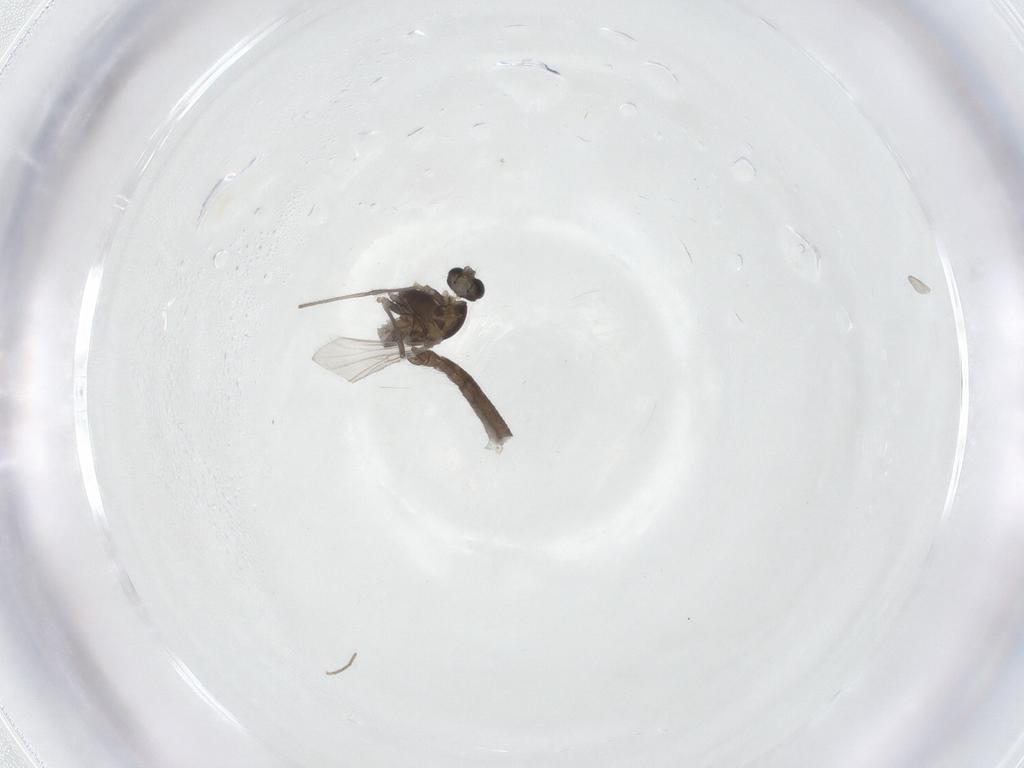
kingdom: Animalia
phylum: Arthropoda
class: Insecta
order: Diptera
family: Chironomidae
